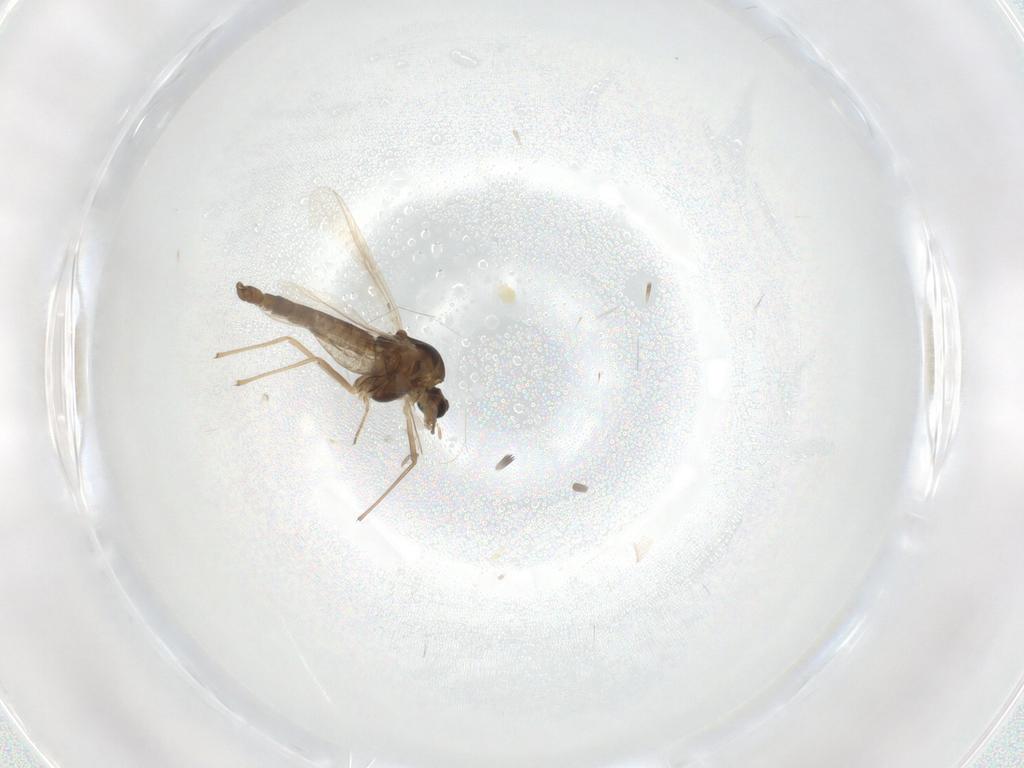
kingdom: Animalia
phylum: Arthropoda
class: Insecta
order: Diptera
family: Chironomidae
